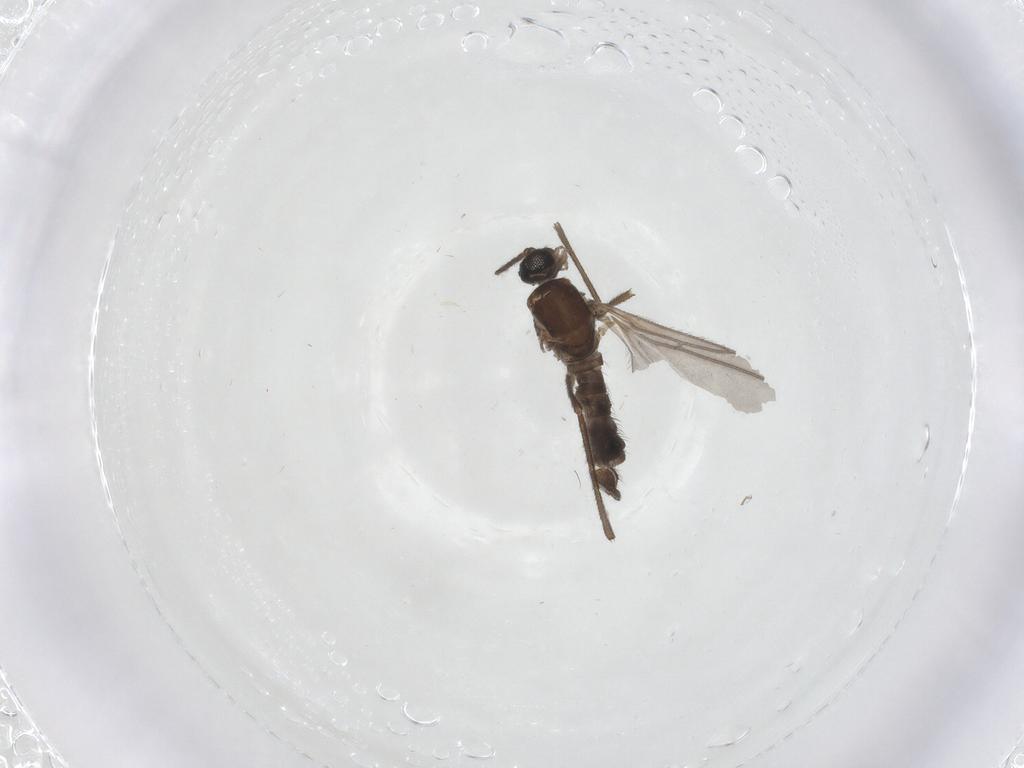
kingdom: Animalia
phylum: Arthropoda
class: Insecta
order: Diptera
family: Sciaridae
